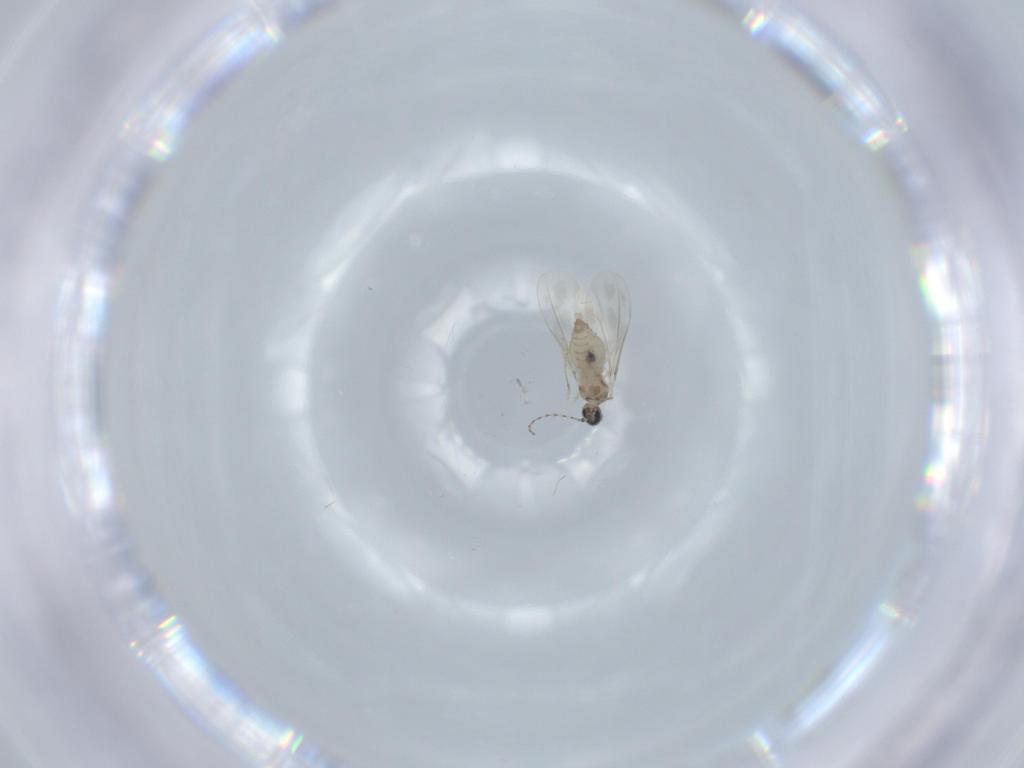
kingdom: Animalia
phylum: Arthropoda
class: Insecta
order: Diptera
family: Cecidomyiidae
